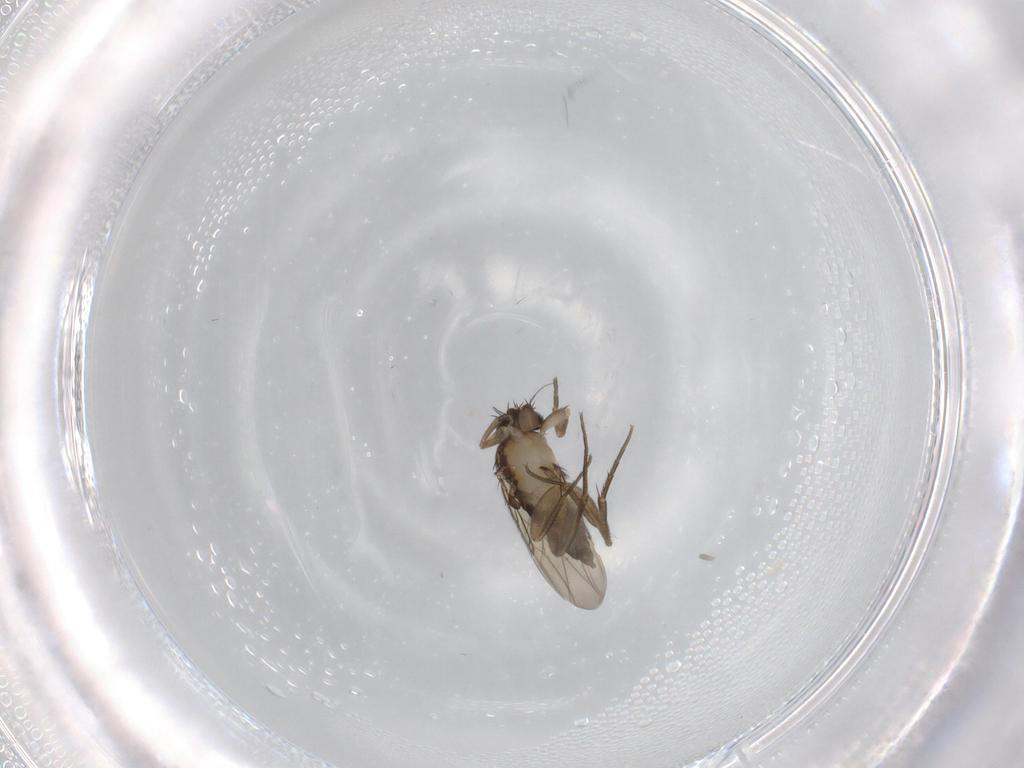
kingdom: Animalia
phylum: Arthropoda
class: Insecta
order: Diptera
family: Phoridae
